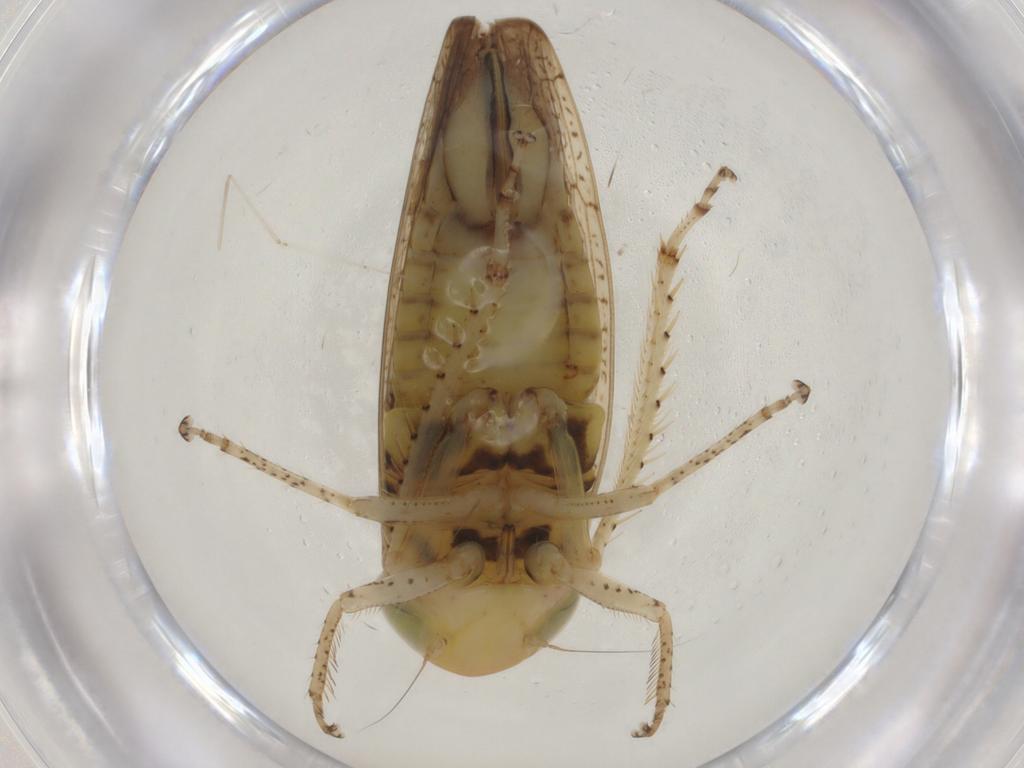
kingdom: Animalia
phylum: Arthropoda
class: Insecta
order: Hemiptera
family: Cicadellidae
